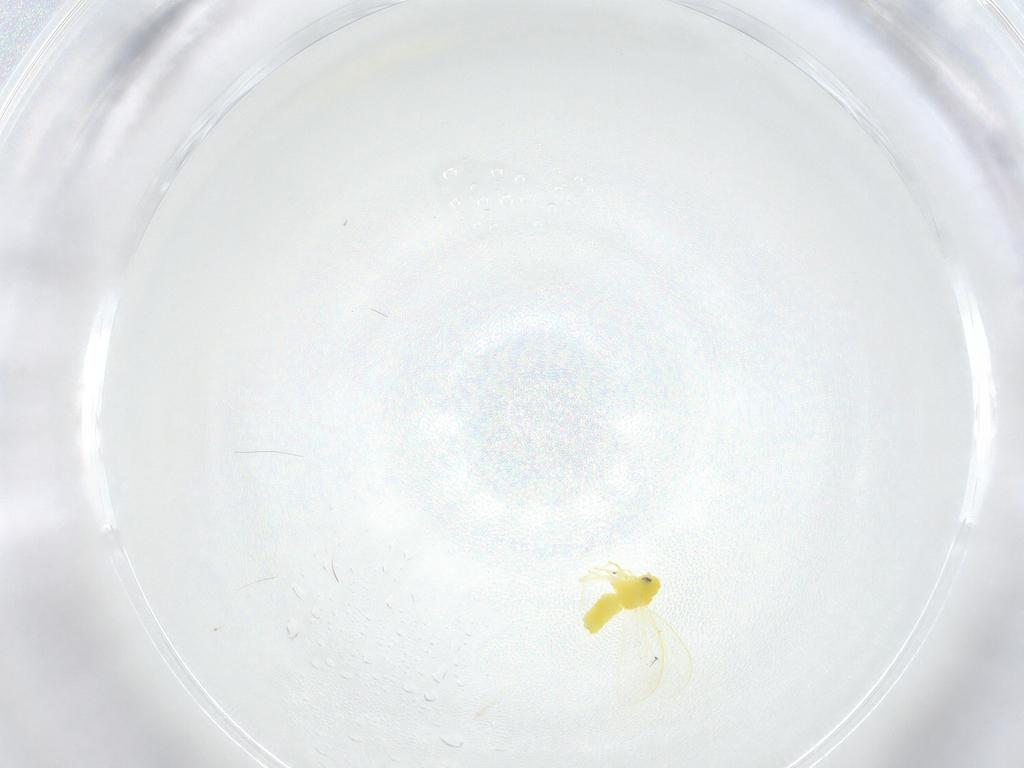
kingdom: Animalia
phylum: Arthropoda
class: Insecta
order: Hemiptera
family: Aleyrodidae
